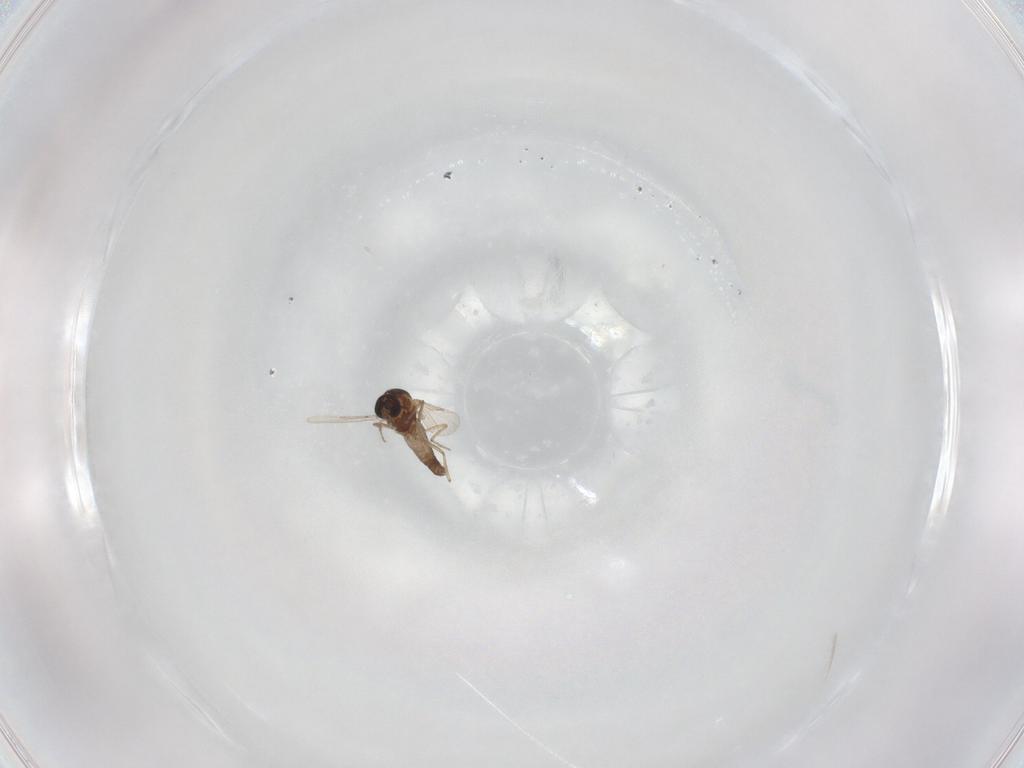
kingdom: Animalia
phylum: Arthropoda
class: Insecta
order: Diptera
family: Ceratopogonidae
